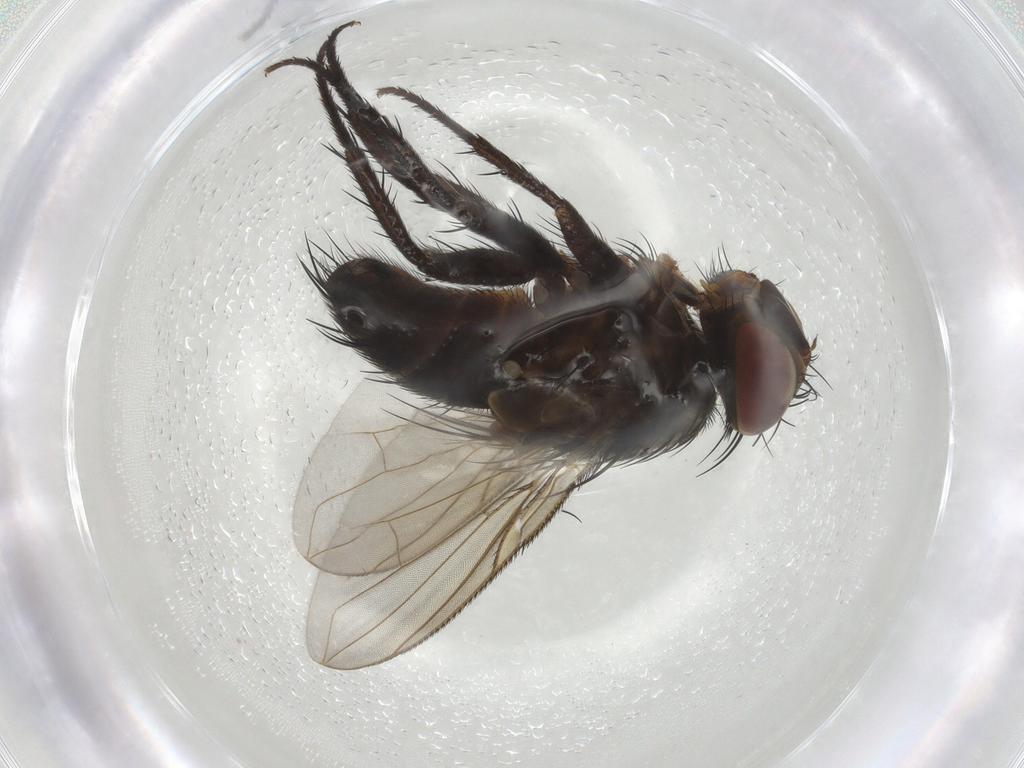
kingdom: Animalia
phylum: Arthropoda
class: Insecta
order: Diptera
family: Tachinidae
